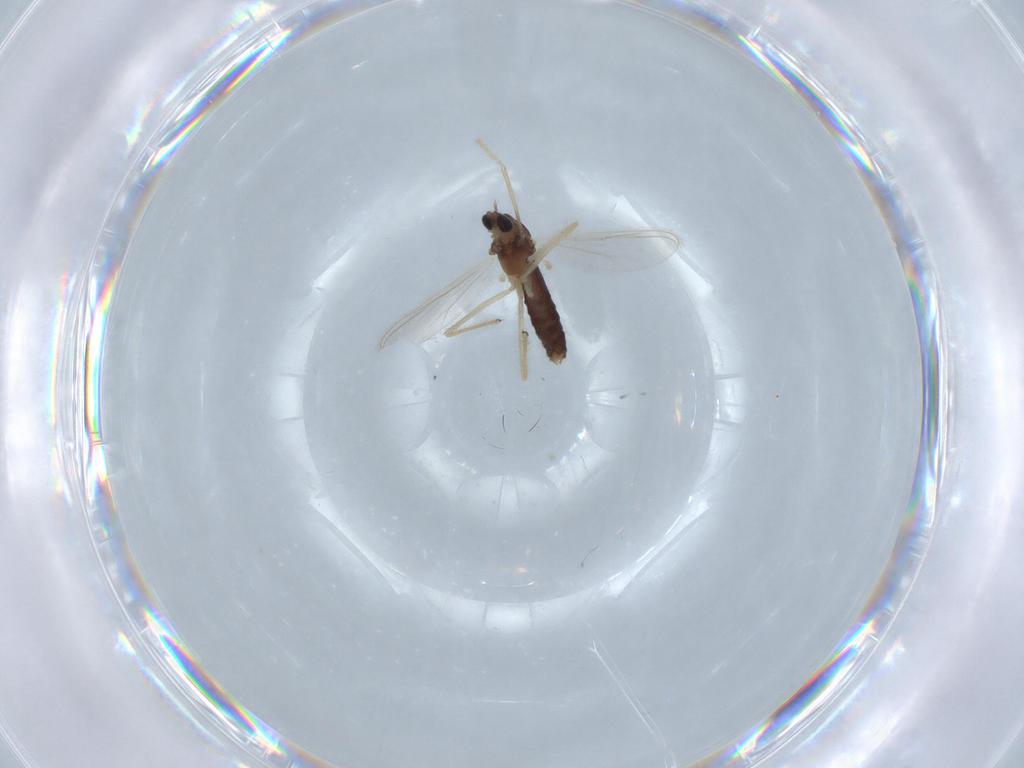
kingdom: Animalia
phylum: Arthropoda
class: Insecta
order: Diptera
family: Chironomidae
